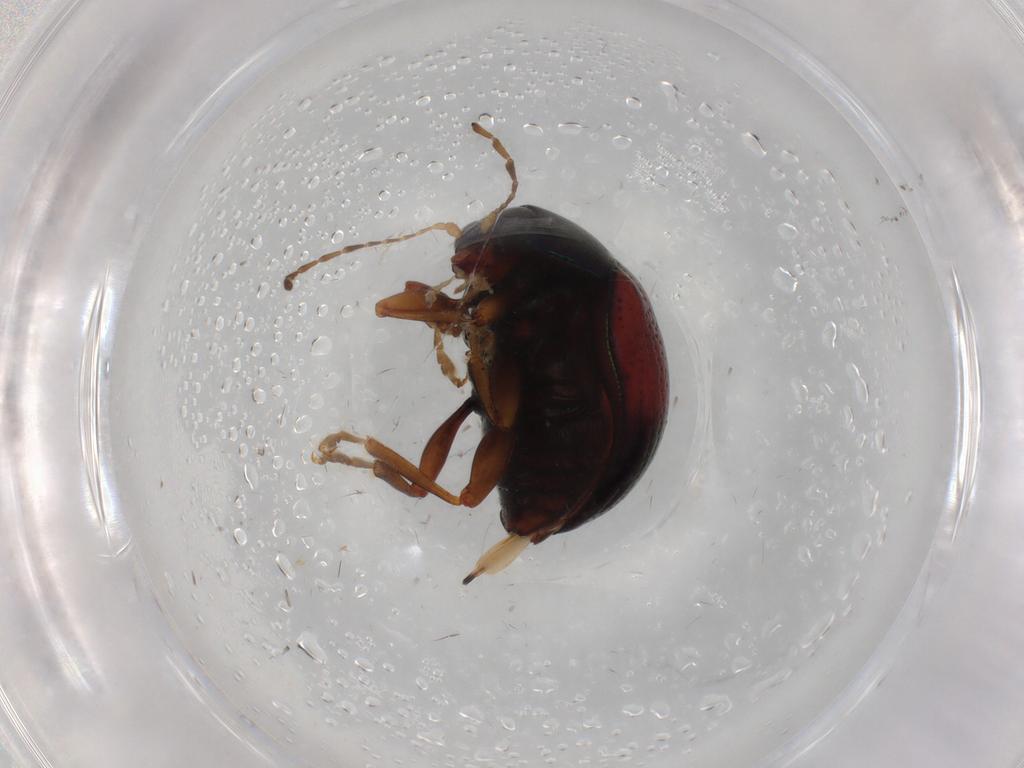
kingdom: Animalia
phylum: Arthropoda
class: Insecta
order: Coleoptera
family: Chrysomelidae
